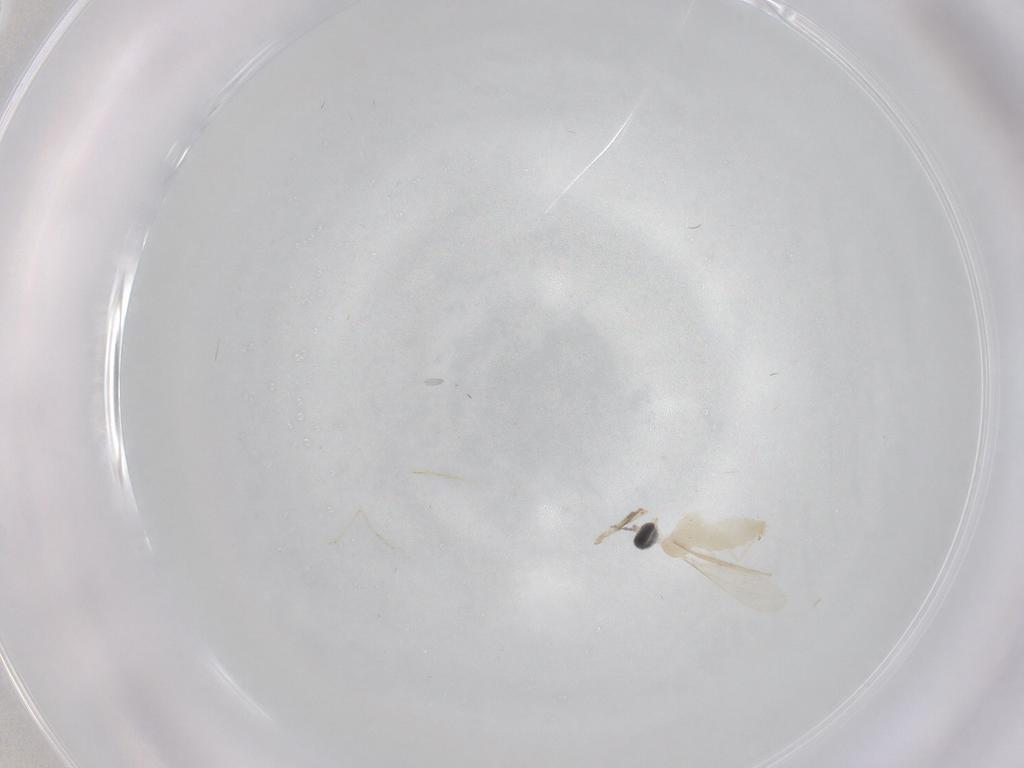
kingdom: Animalia
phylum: Arthropoda
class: Insecta
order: Diptera
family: Cecidomyiidae
